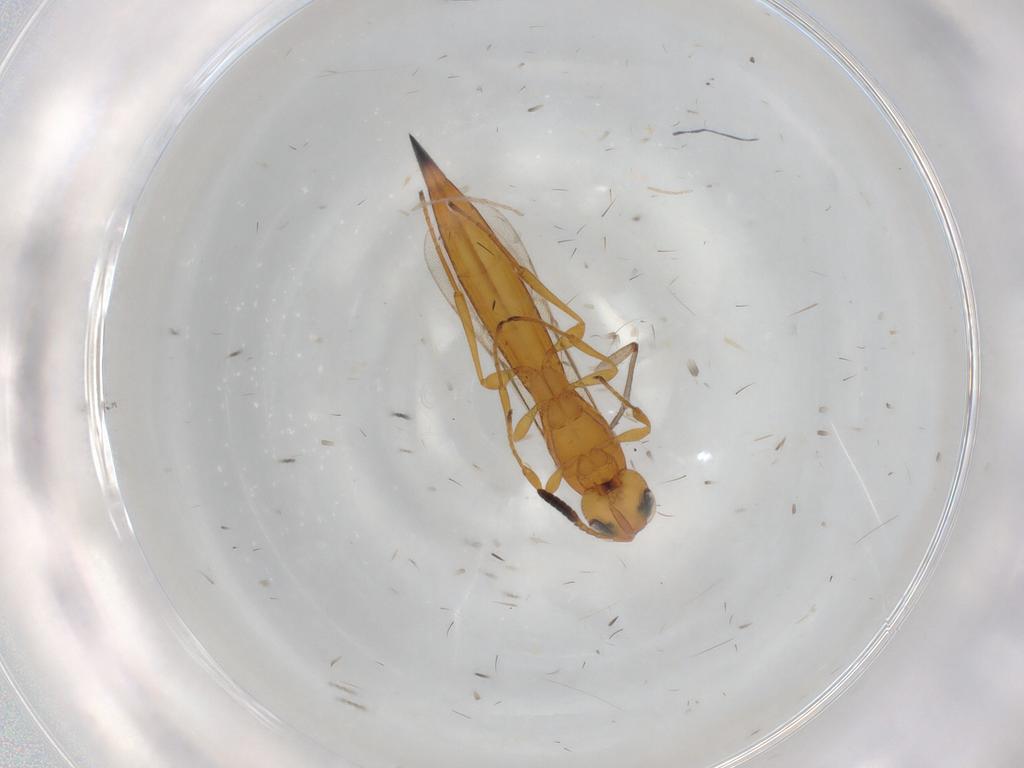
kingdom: Animalia
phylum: Arthropoda
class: Insecta
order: Hymenoptera
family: Scelionidae
